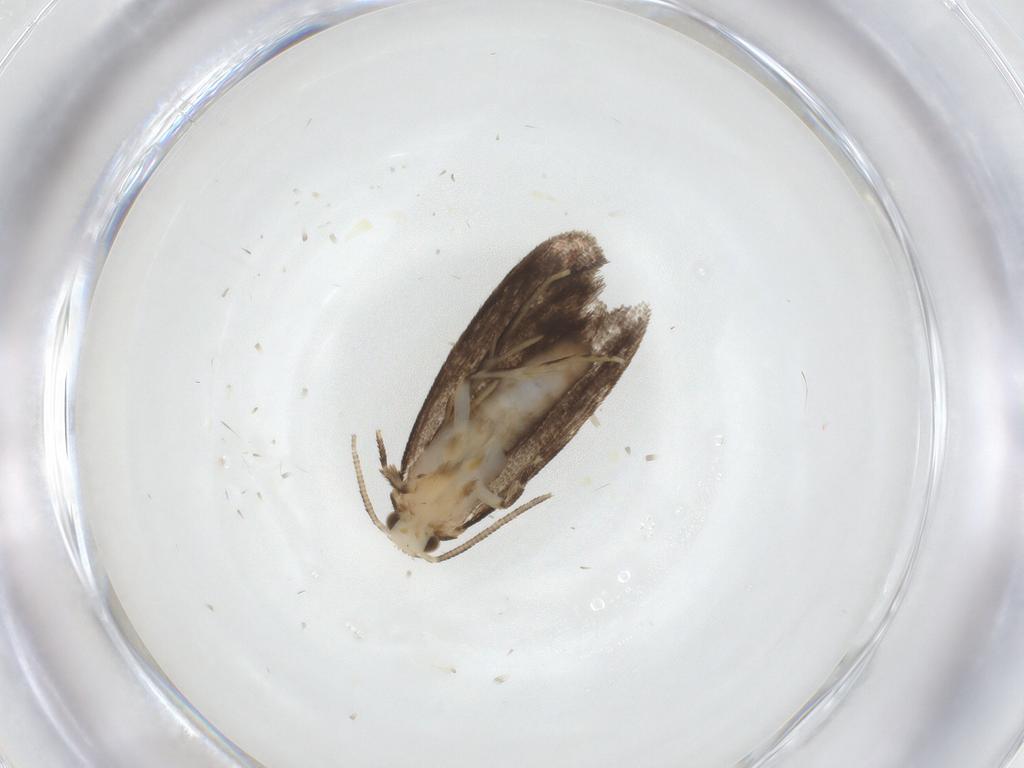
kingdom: Animalia
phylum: Arthropoda
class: Insecta
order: Lepidoptera
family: Dryadaulidae
